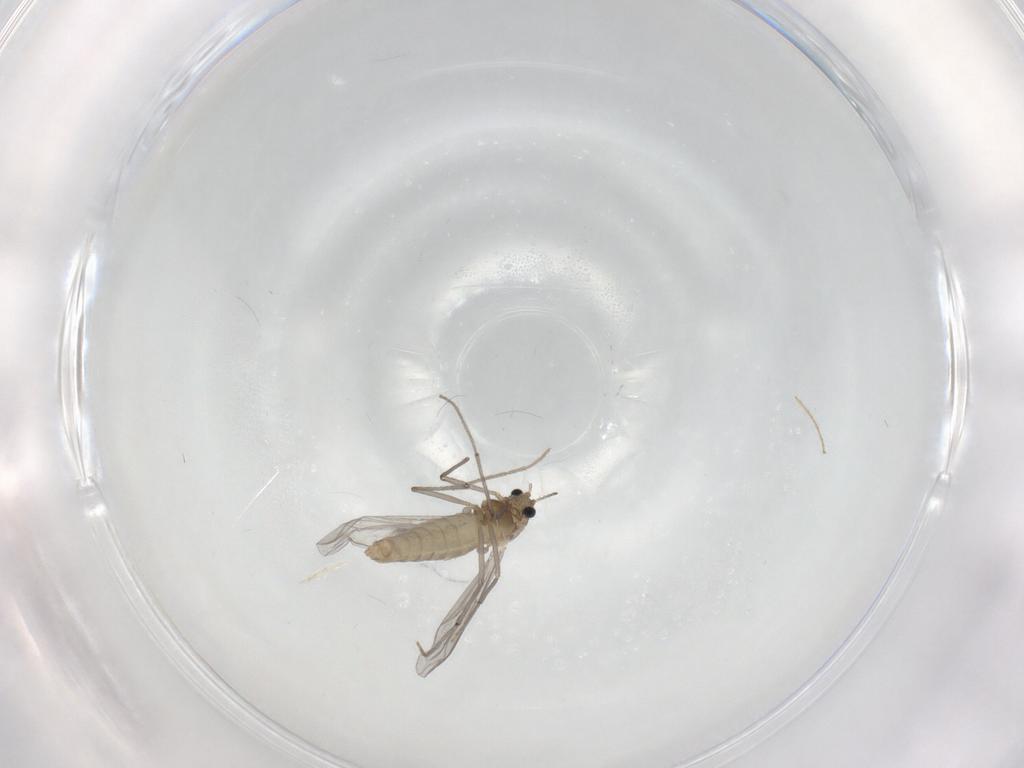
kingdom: Animalia
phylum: Arthropoda
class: Insecta
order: Diptera
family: Chironomidae
